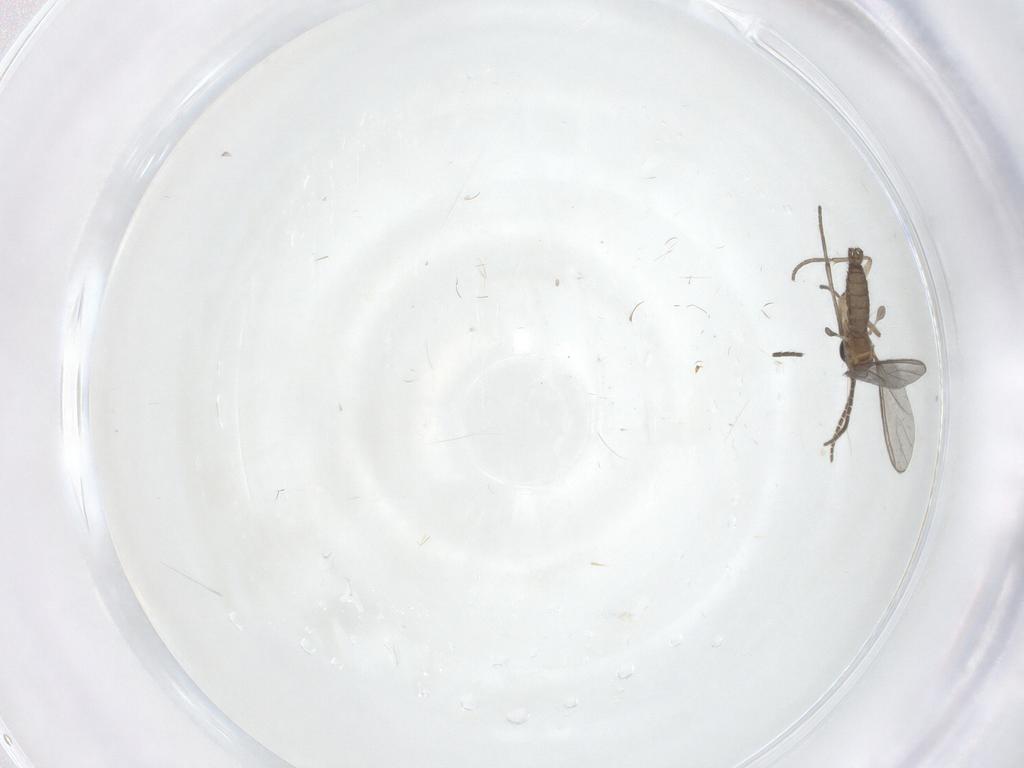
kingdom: Animalia
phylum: Arthropoda
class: Insecta
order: Diptera
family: Sciaridae
